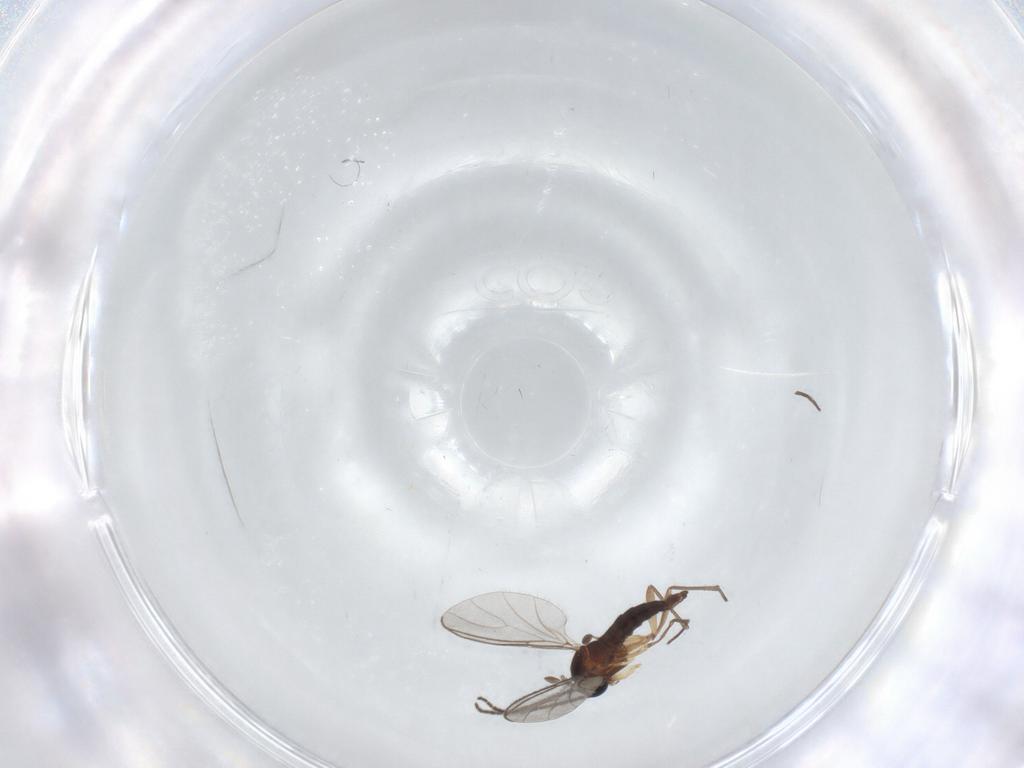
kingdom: Animalia
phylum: Arthropoda
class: Insecta
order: Diptera
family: Sciaridae
